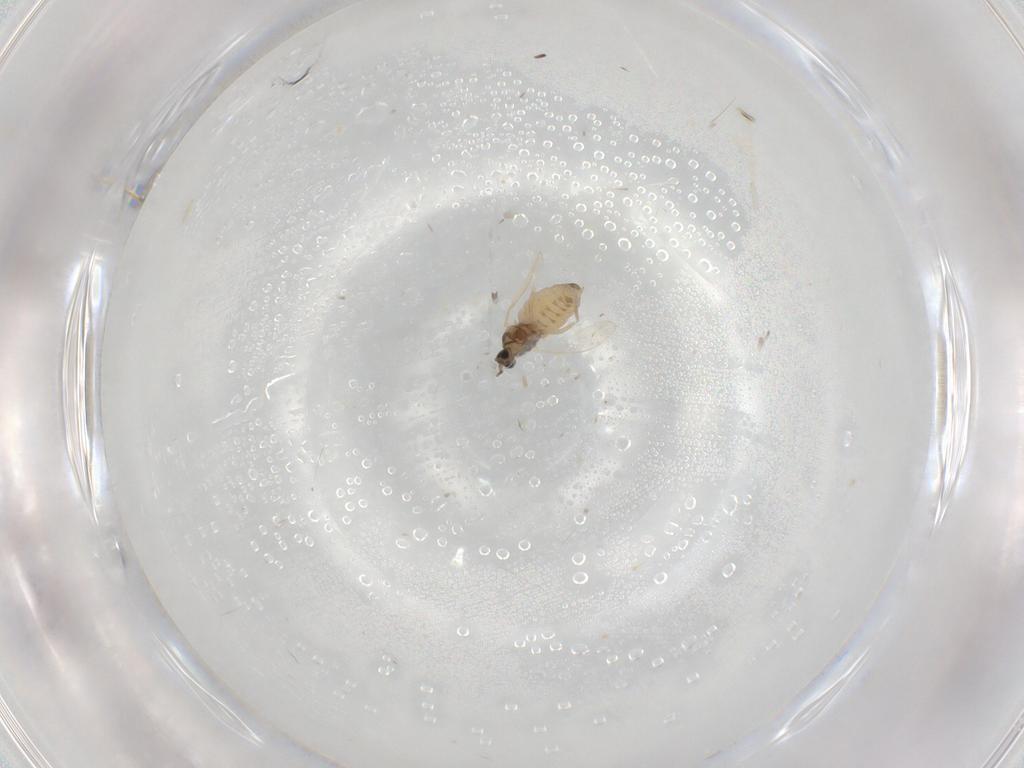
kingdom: Animalia
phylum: Arthropoda
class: Insecta
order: Diptera
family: Cecidomyiidae
